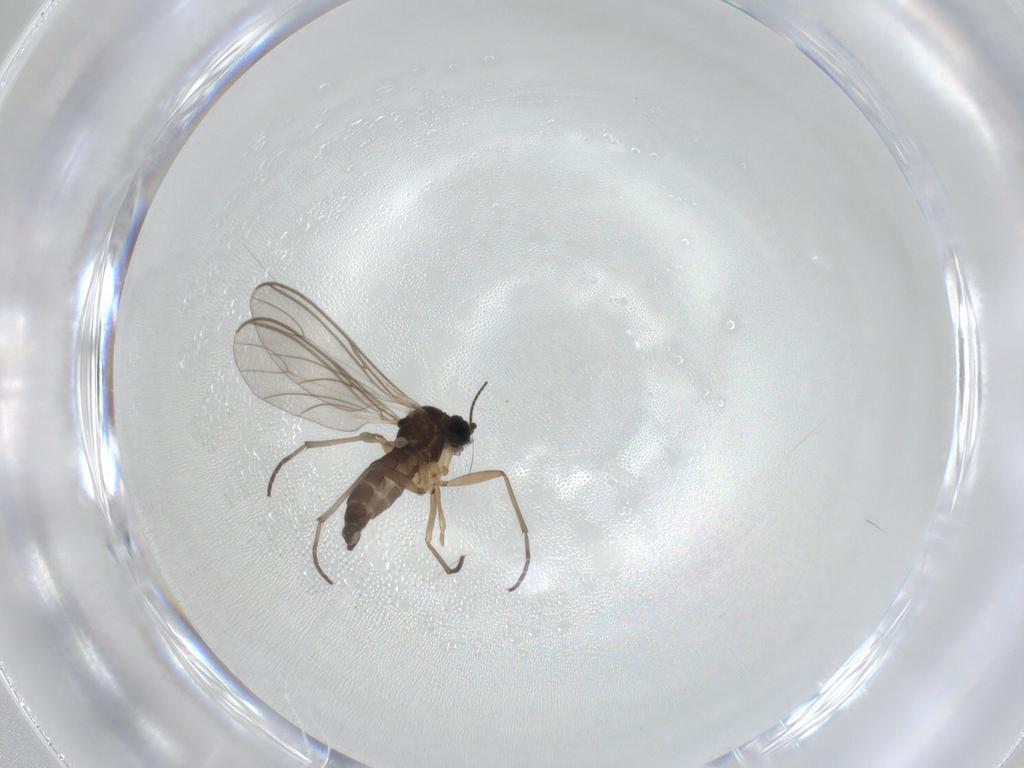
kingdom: Animalia
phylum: Arthropoda
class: Insecta
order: Diptera
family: Sciaridae
